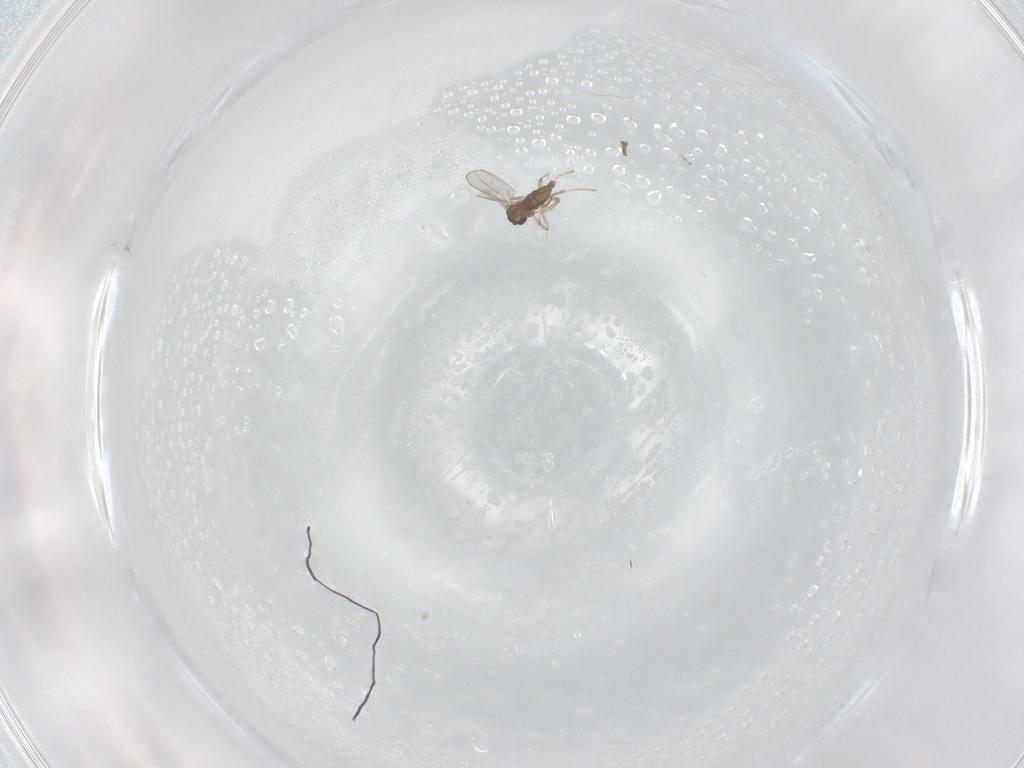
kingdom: Animalia
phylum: Arthropoda
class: Insecta
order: Diptera
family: Cecidomyiidae
